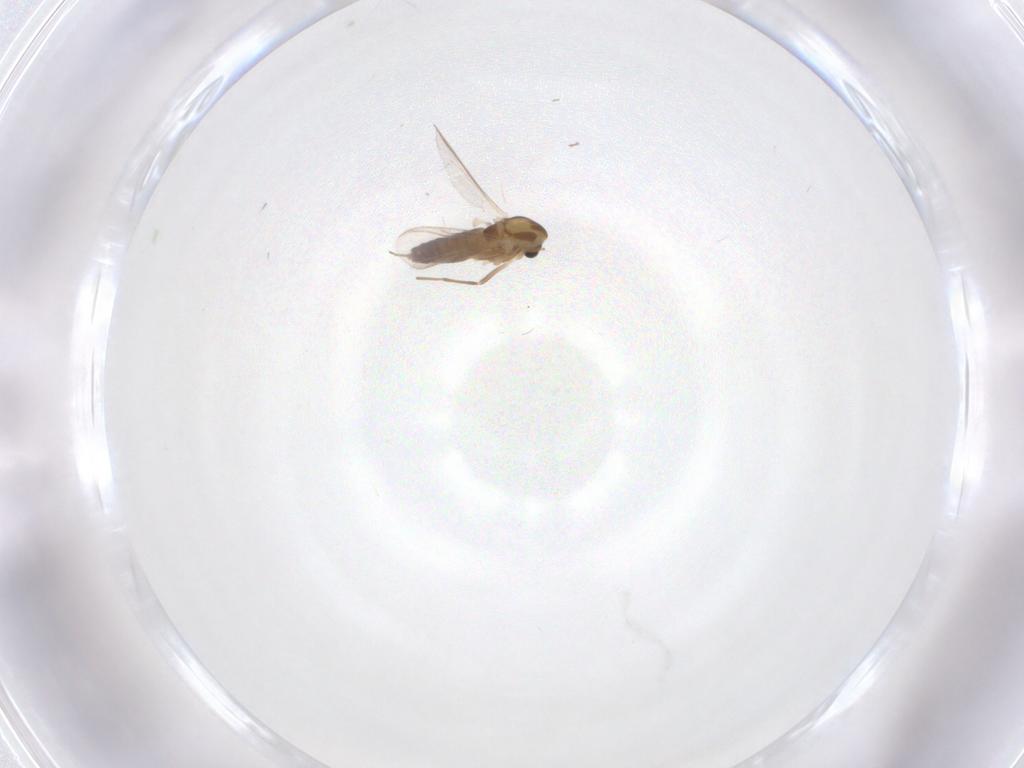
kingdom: Animalia
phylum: Arthropoda
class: Insecta
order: Diptera
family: Chironomidae
